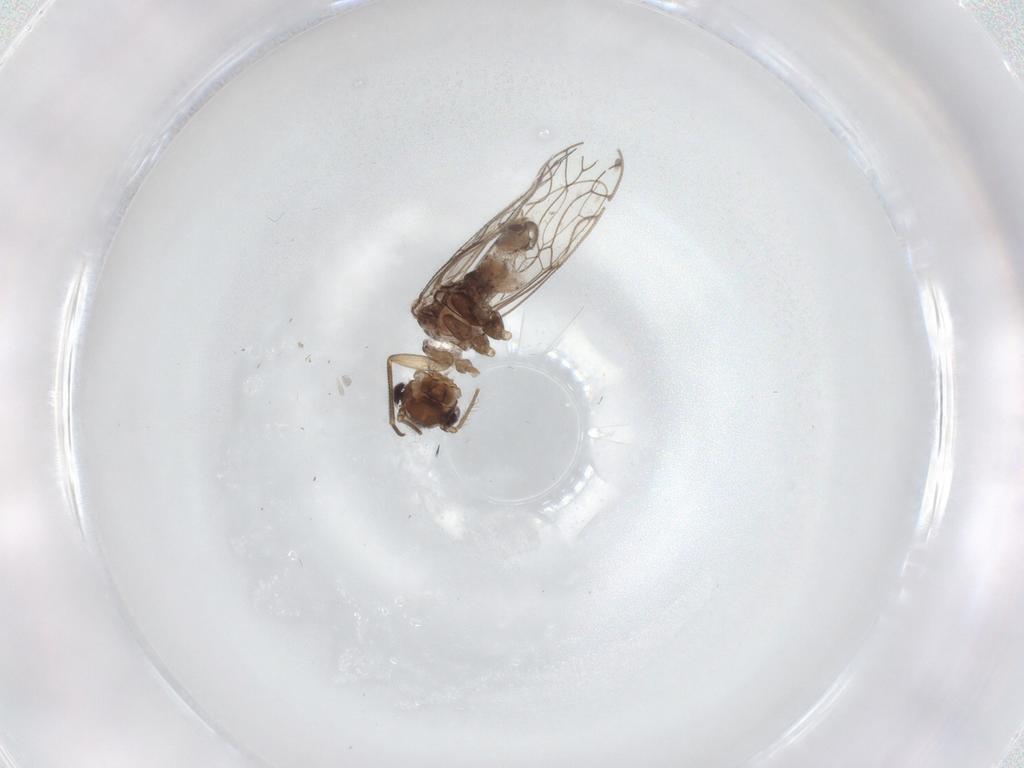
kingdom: Animalia
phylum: Arthropoda
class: Insecta
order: Psocodea
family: Epipsocidae
